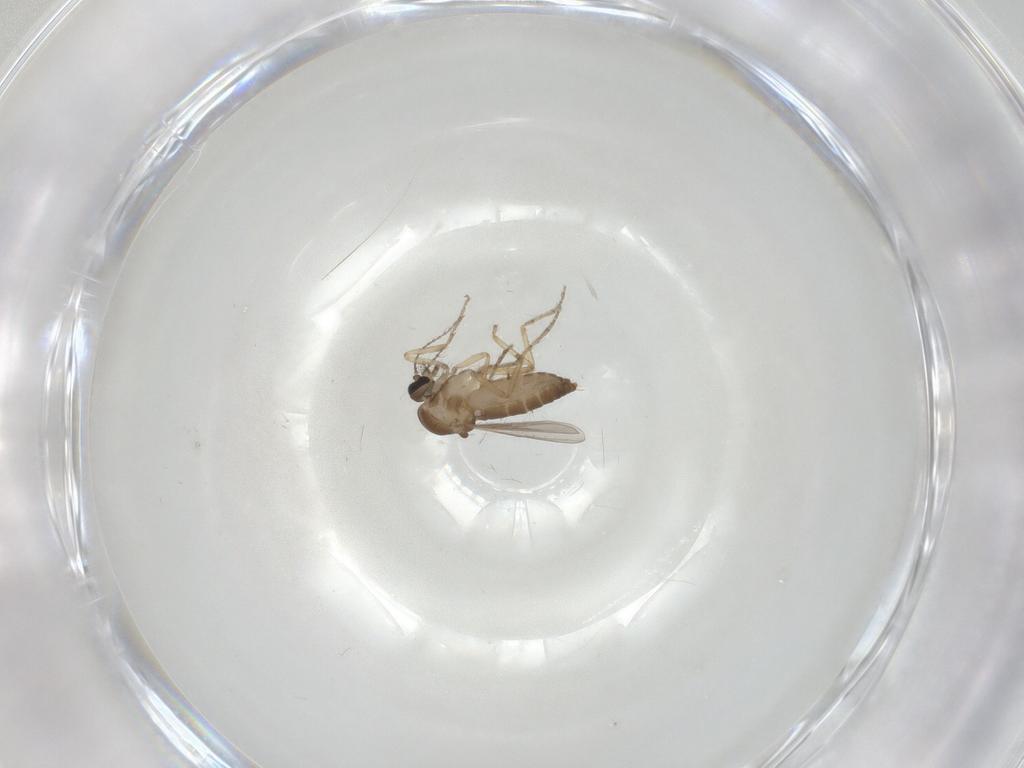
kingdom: Animalia
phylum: Arthropoda
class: Insecta
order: Diptera
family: Ceratopogonidae
